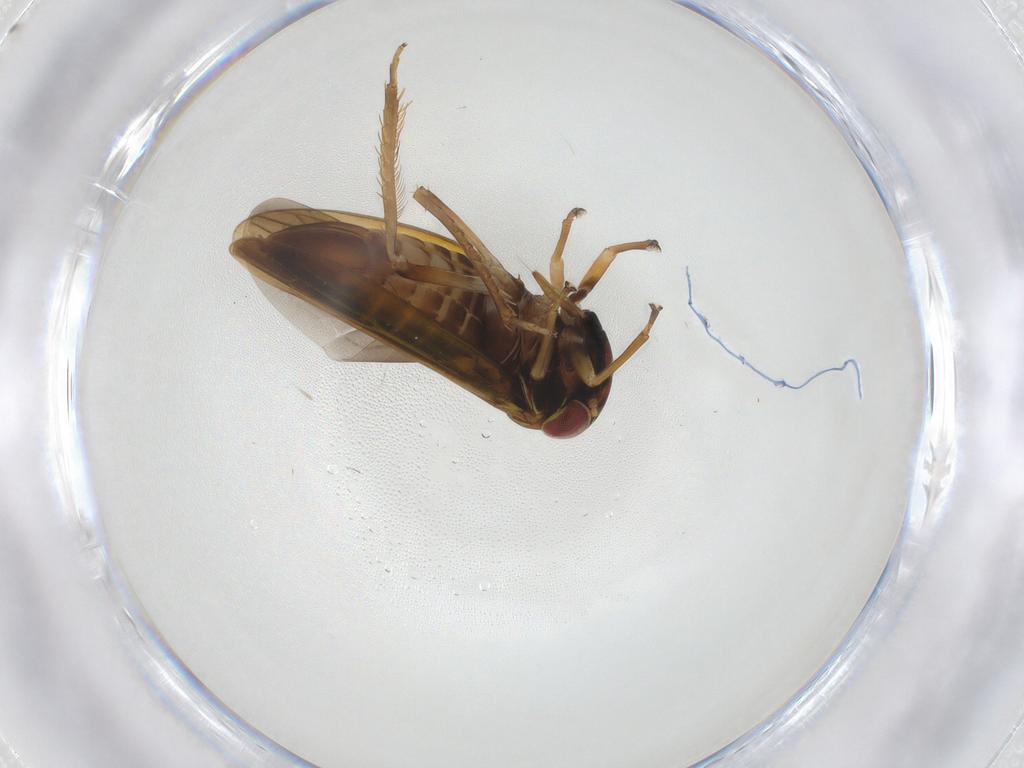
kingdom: Animalia
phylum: Arthropoda
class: Insecta
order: Hemiptera
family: Cicadellidae
